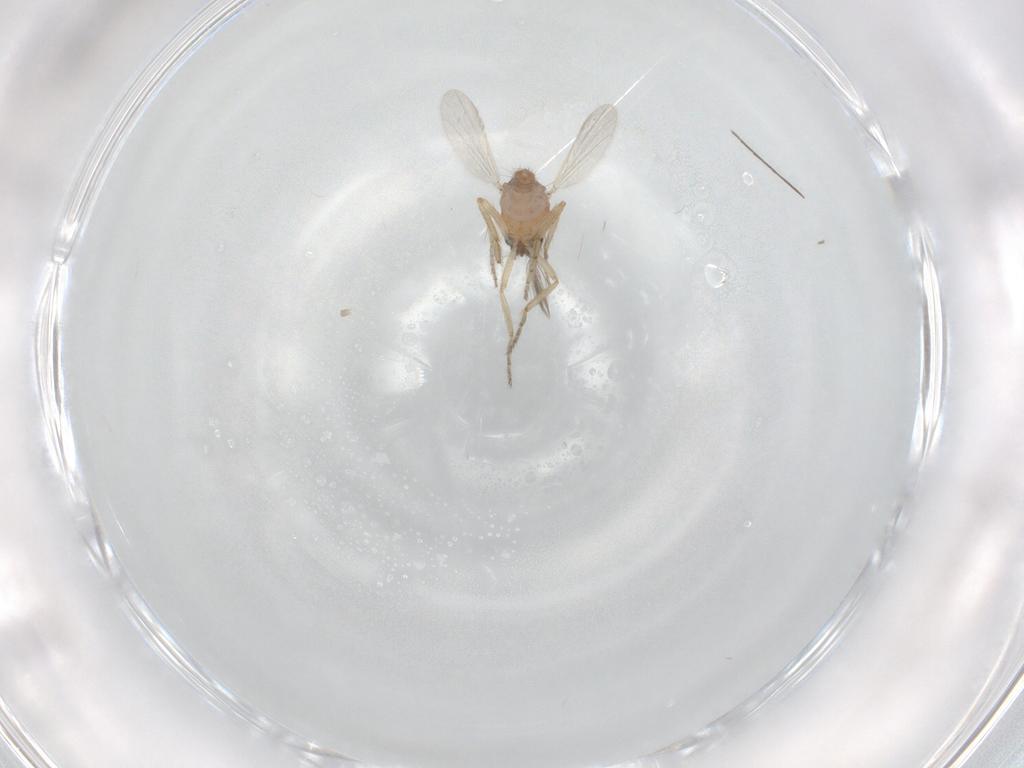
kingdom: Animalia
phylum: Arthropoda
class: Insecta
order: Diptera
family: Ceratopogonidae
